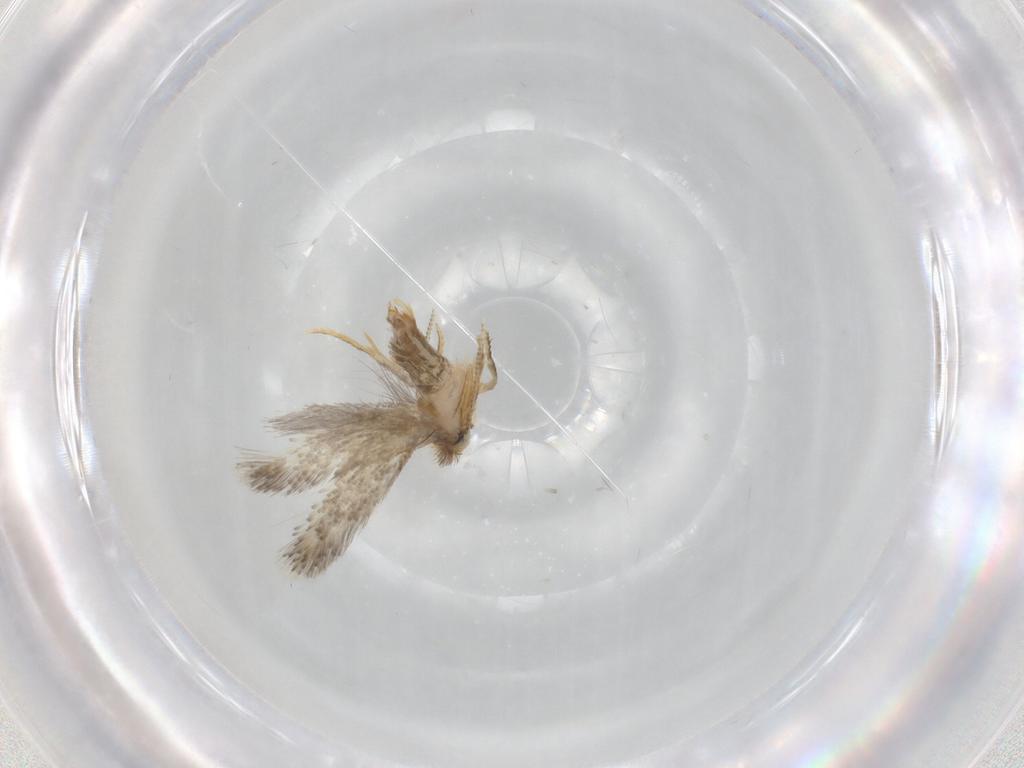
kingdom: Animalia
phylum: Arthropoda
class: Insecta
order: Lepidoptera
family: Nepticulidae
